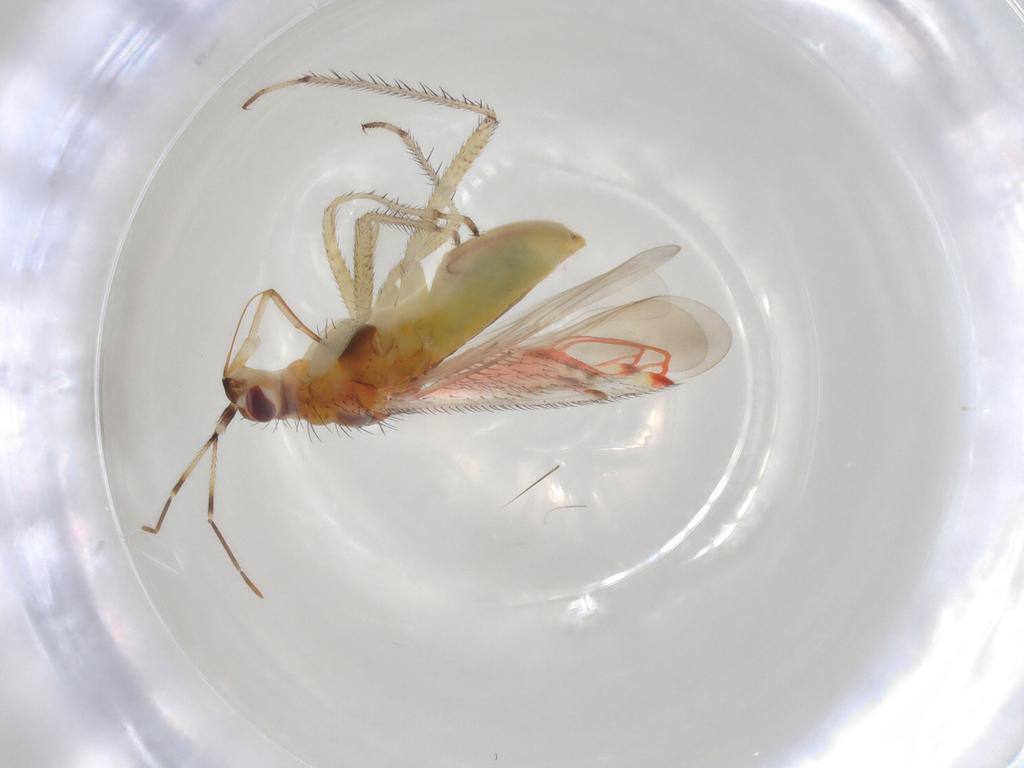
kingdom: Animalia
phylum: Arthropoda
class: Insecta
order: Hemiptera
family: Miridae
